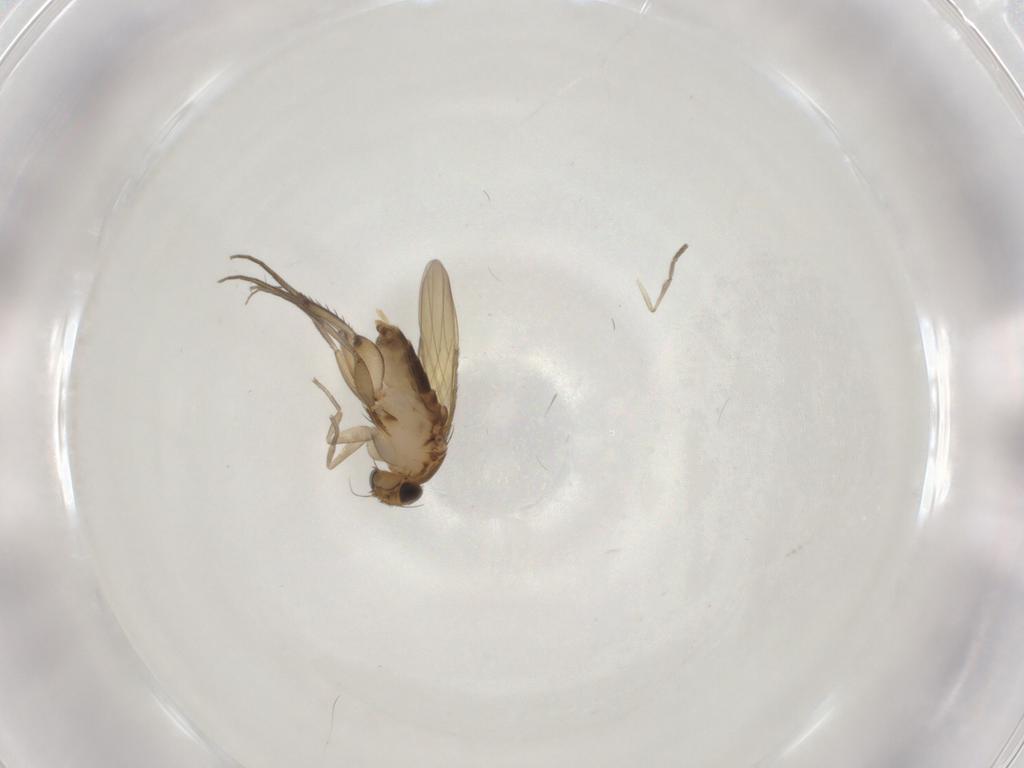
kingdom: Animalia
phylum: Arthropoda
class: Insecta
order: Diptera
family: Phoridae
